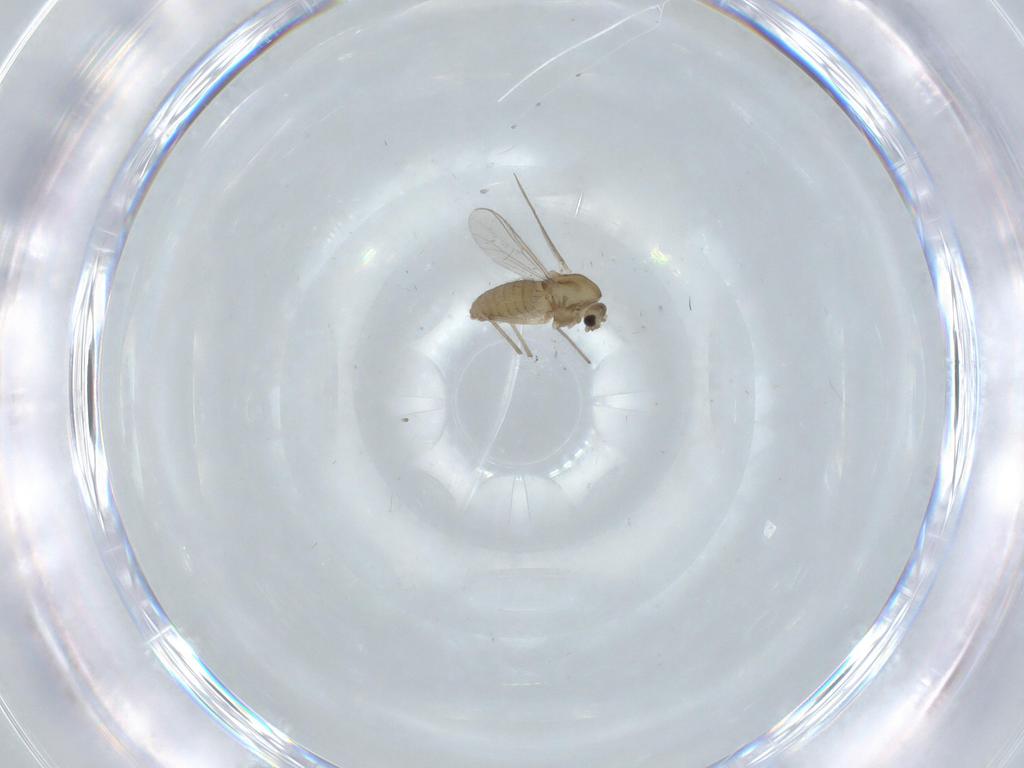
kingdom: Animalia
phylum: Arthropoda
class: Insecta
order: Diptera
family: Chironomidae
